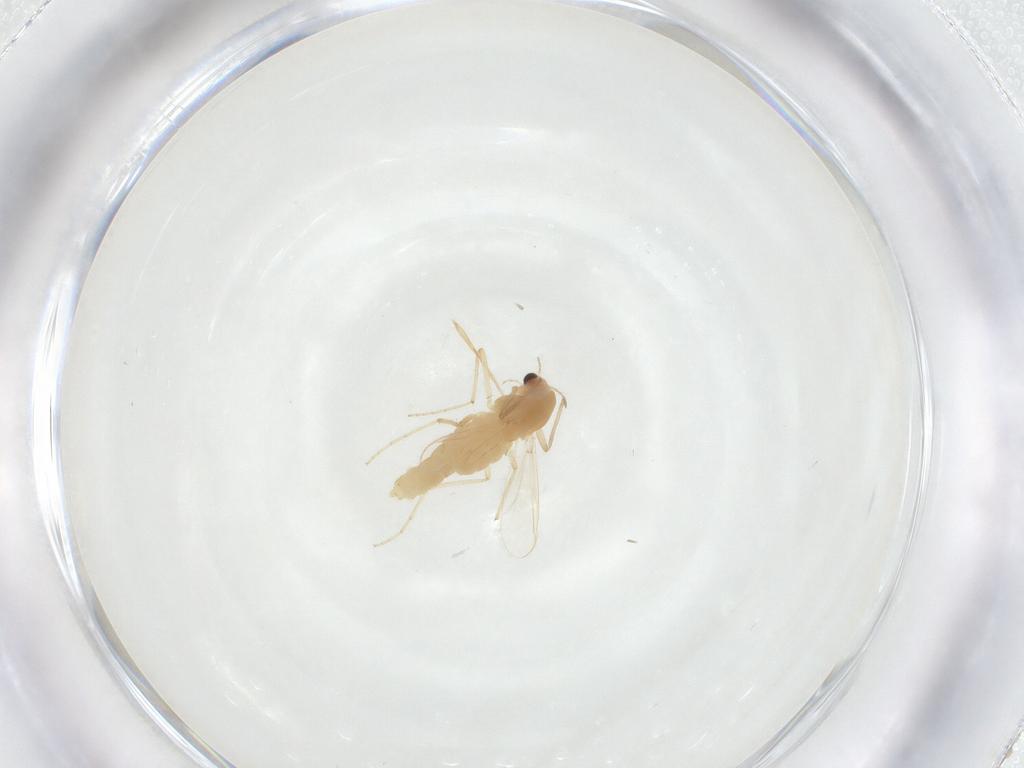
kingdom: Animalia
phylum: Arthropoda
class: Insecta
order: Diptera
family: Chironomidae
